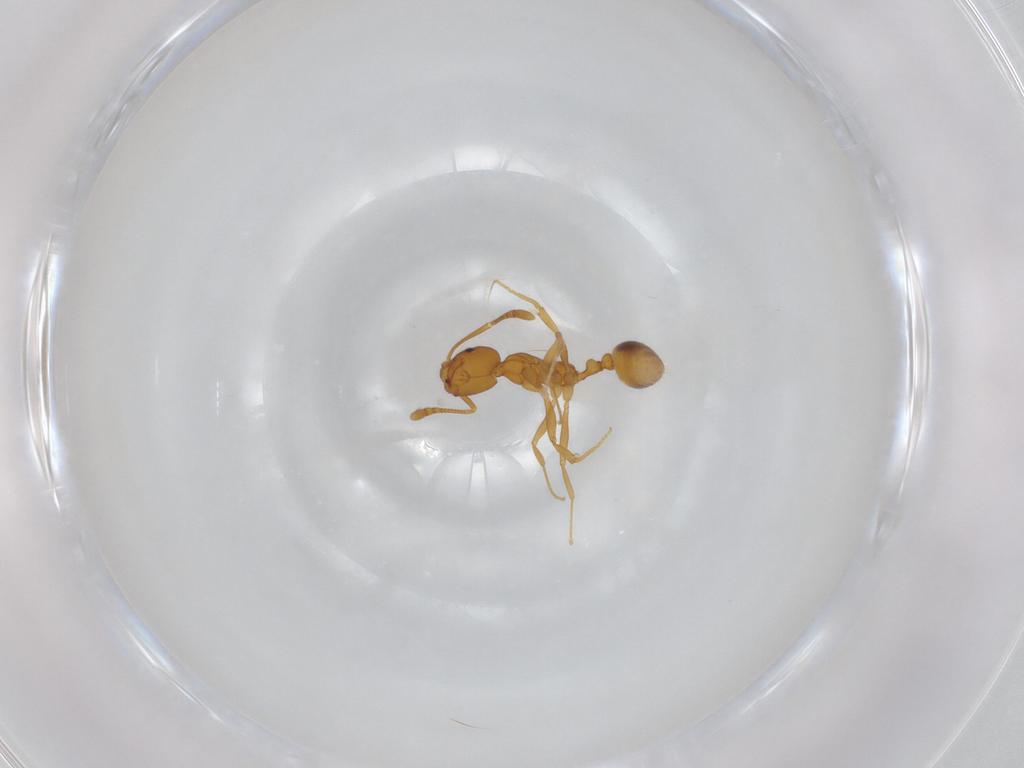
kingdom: Animalia
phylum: Arthropoda
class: Insecta
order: Hymenoptera
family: Formicidae
